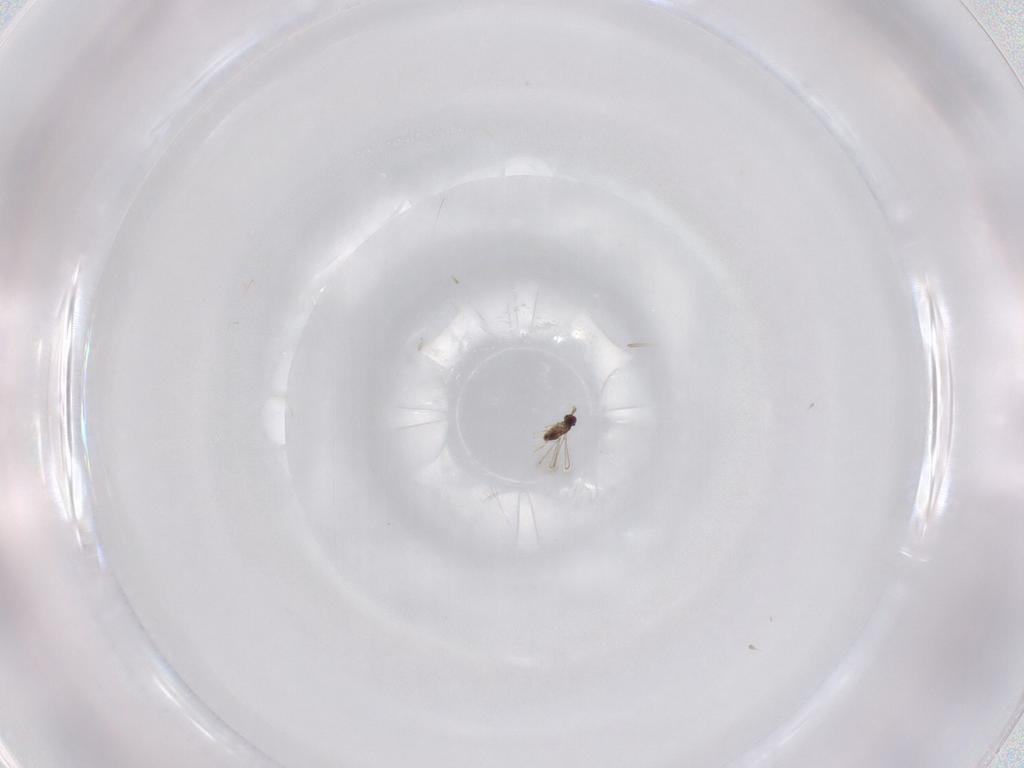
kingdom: Animalia
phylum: Arthropoda
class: Insecta
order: Hymenoptera
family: Mymaridae
